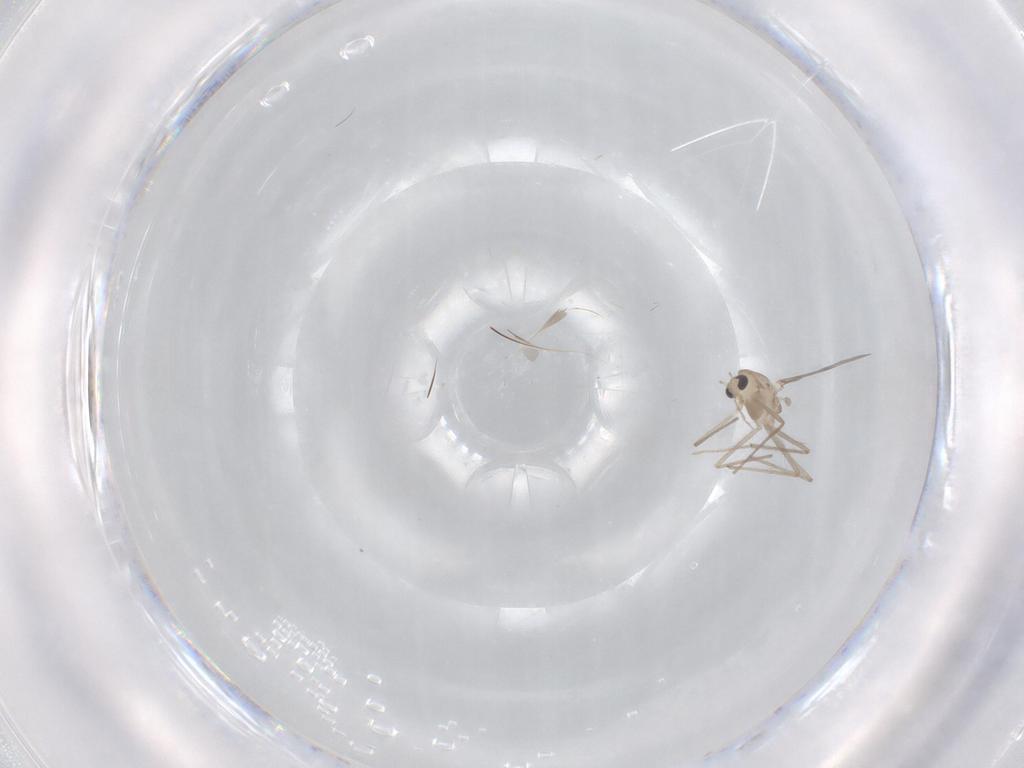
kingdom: Animalia
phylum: Arthropoda
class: Insecta
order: Diptera
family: Chironomidae
